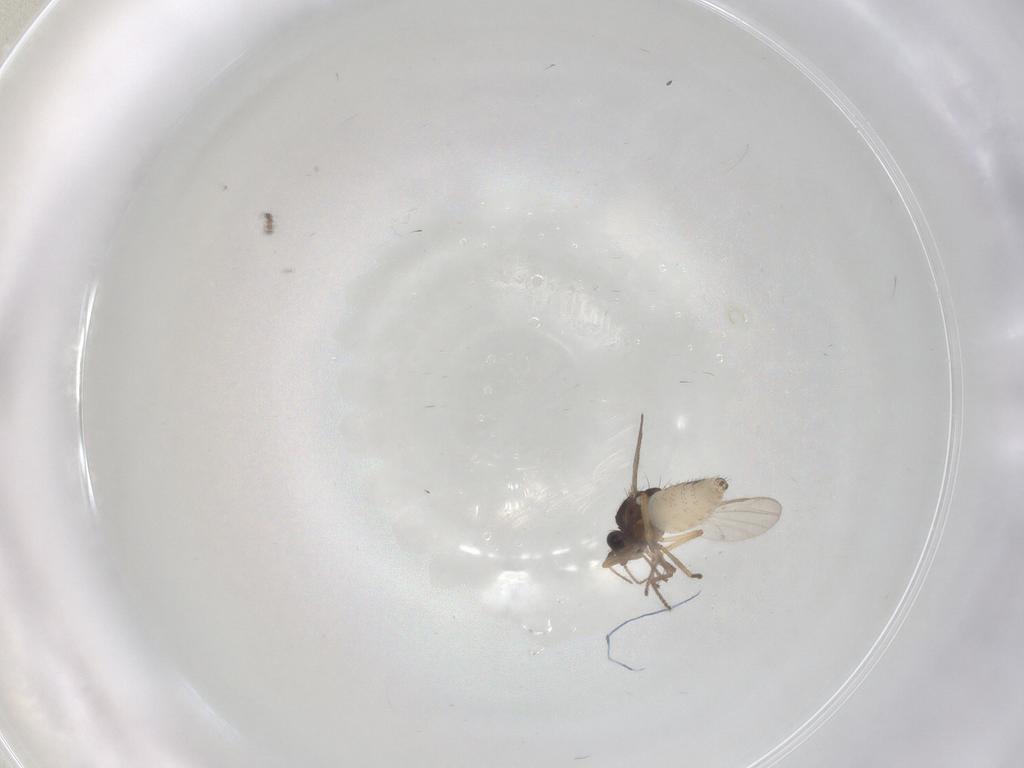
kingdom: Animalia
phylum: Arthropoda
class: Insecta
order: Diptera
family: Ceratopogonidae
